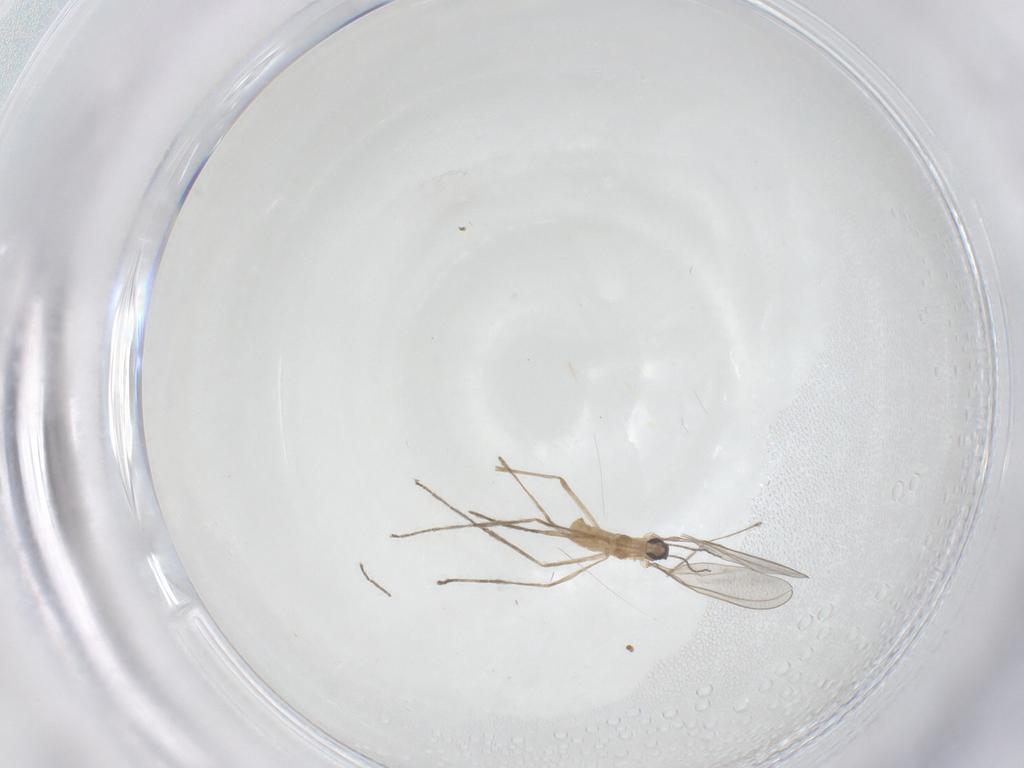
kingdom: Animalia
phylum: Arthropoda
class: Insecta
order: Diptera
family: Cecidomyiidae
